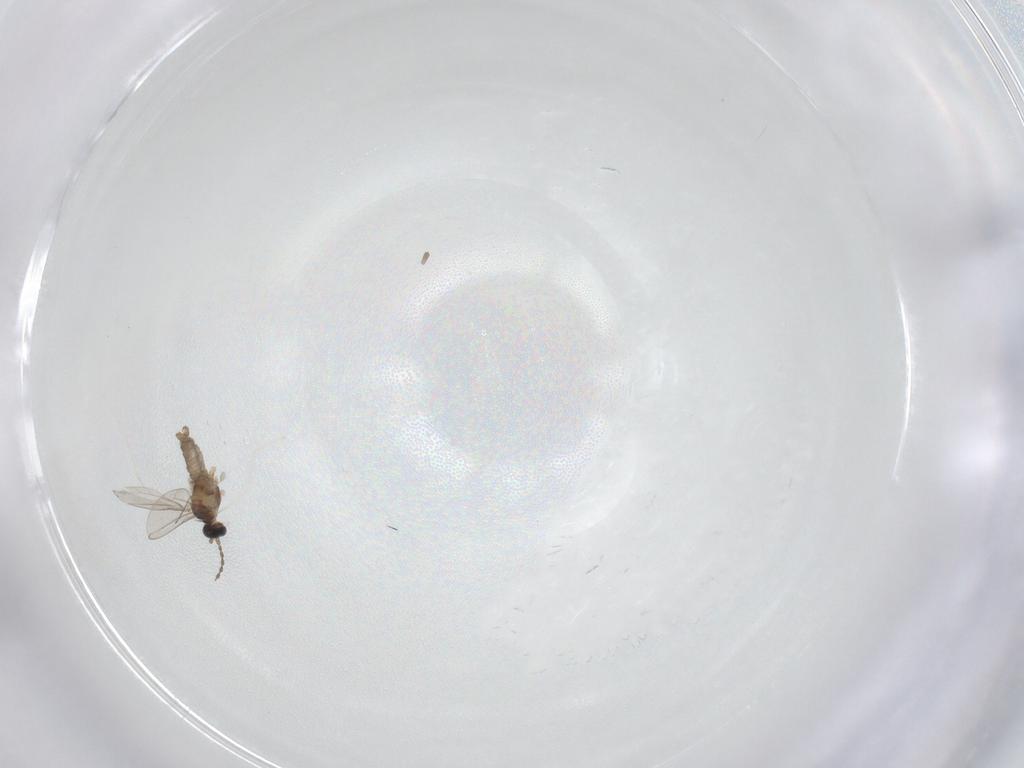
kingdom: Animalia
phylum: Arthropoda
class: Insecta
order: Diptera
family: Cecidomyiidae
